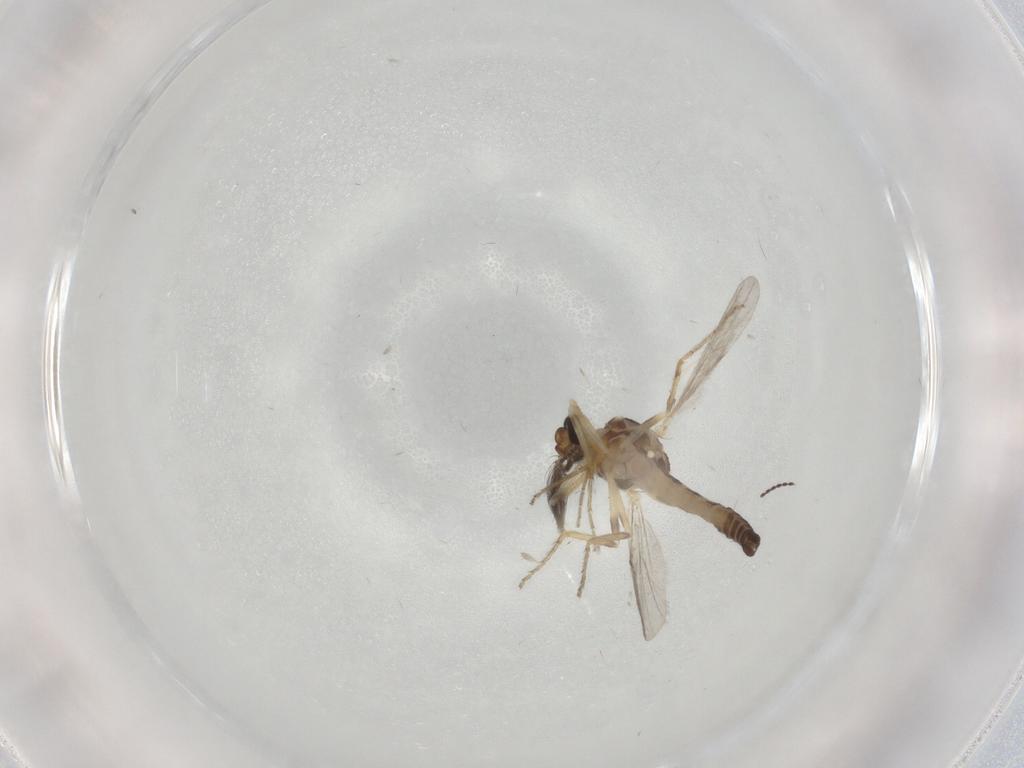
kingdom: Animalia
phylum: Arthropoda
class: Insecta
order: Diptera
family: Ceratopogonidae
